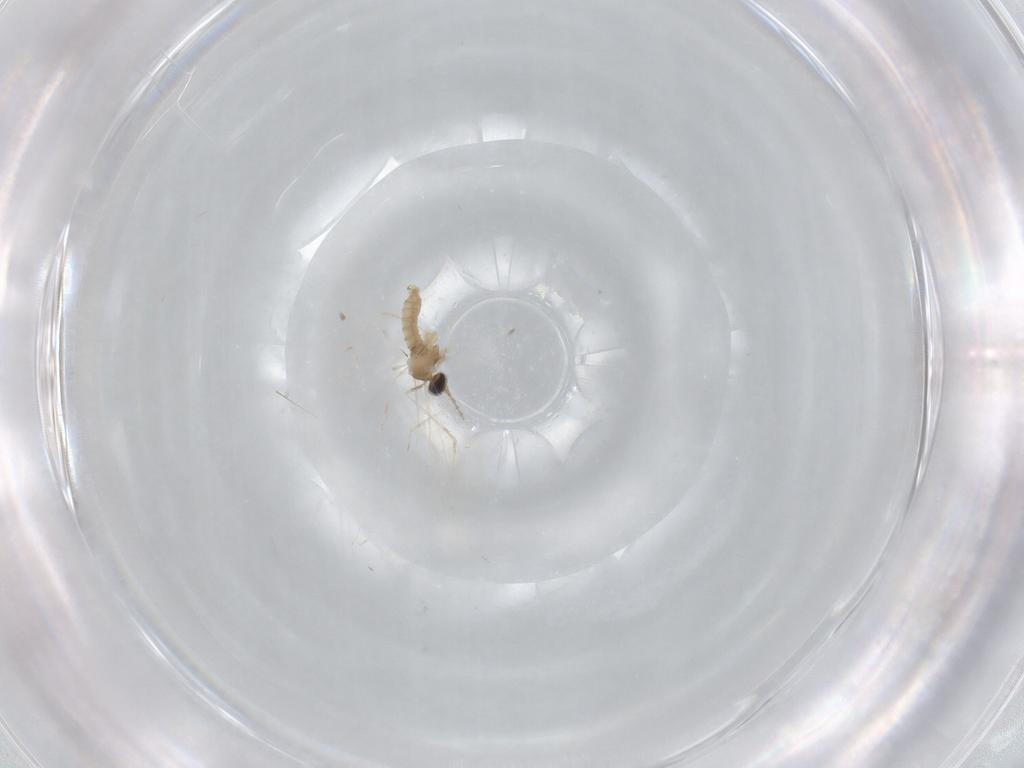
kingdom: Animalia
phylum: Arthropoda
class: Insecta
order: Diptera
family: Cecidomyiidae
